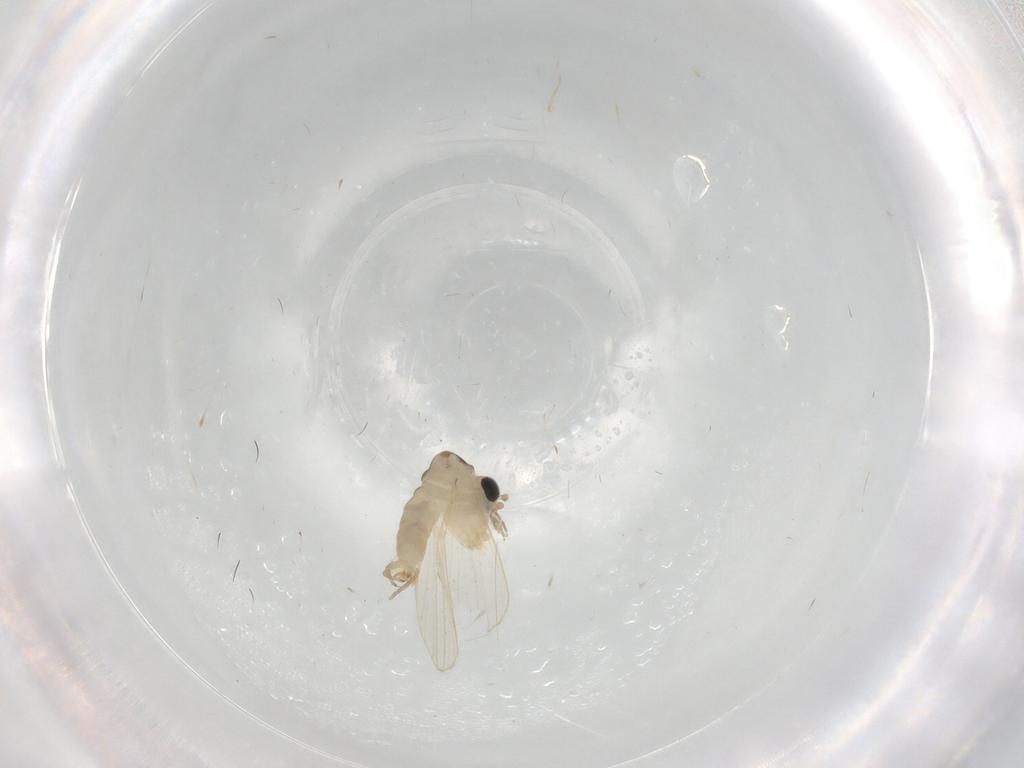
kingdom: Animalia
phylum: Arthropoda
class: Insecta
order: Diptera
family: Psychodidae
